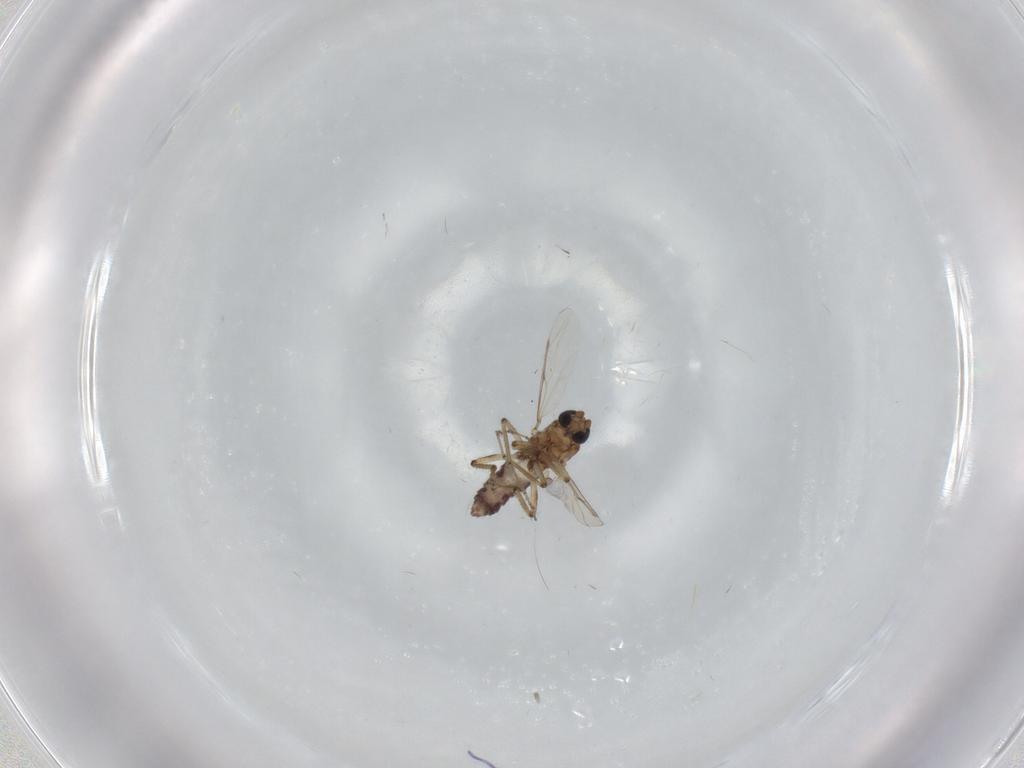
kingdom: Animalia
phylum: Arthropoda
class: Insecta
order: Diptera
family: Ceratopogonidae
